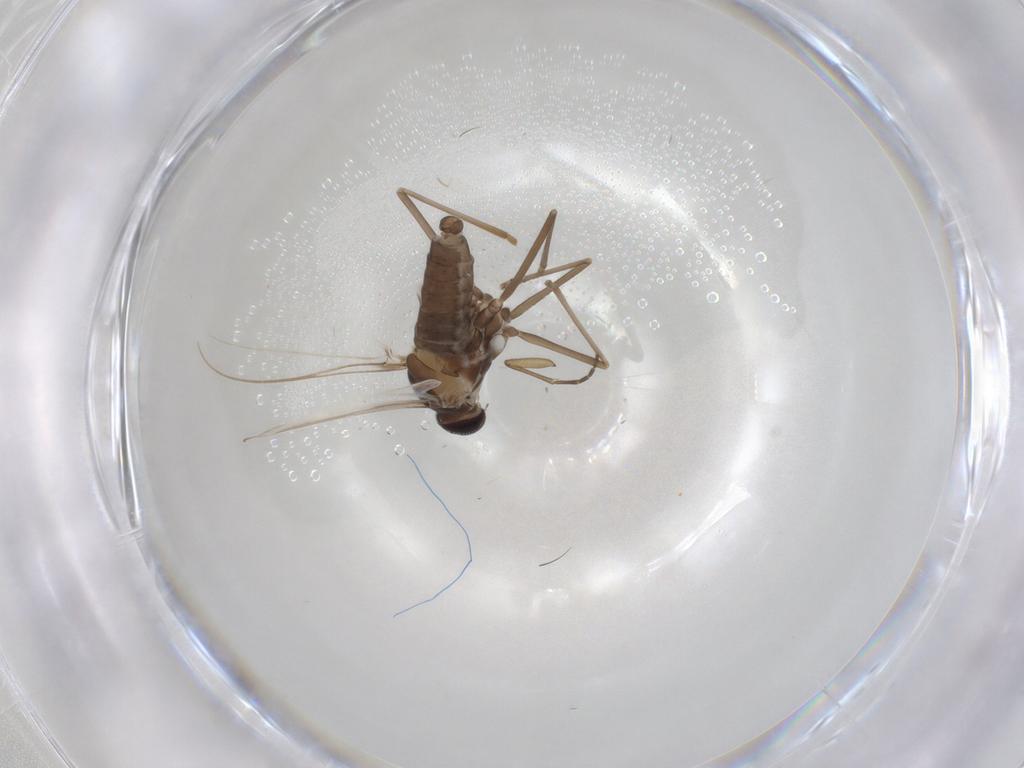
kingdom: Animalia
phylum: Arthropoda
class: Insecta
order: Diptera
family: Cecidomyiidae
